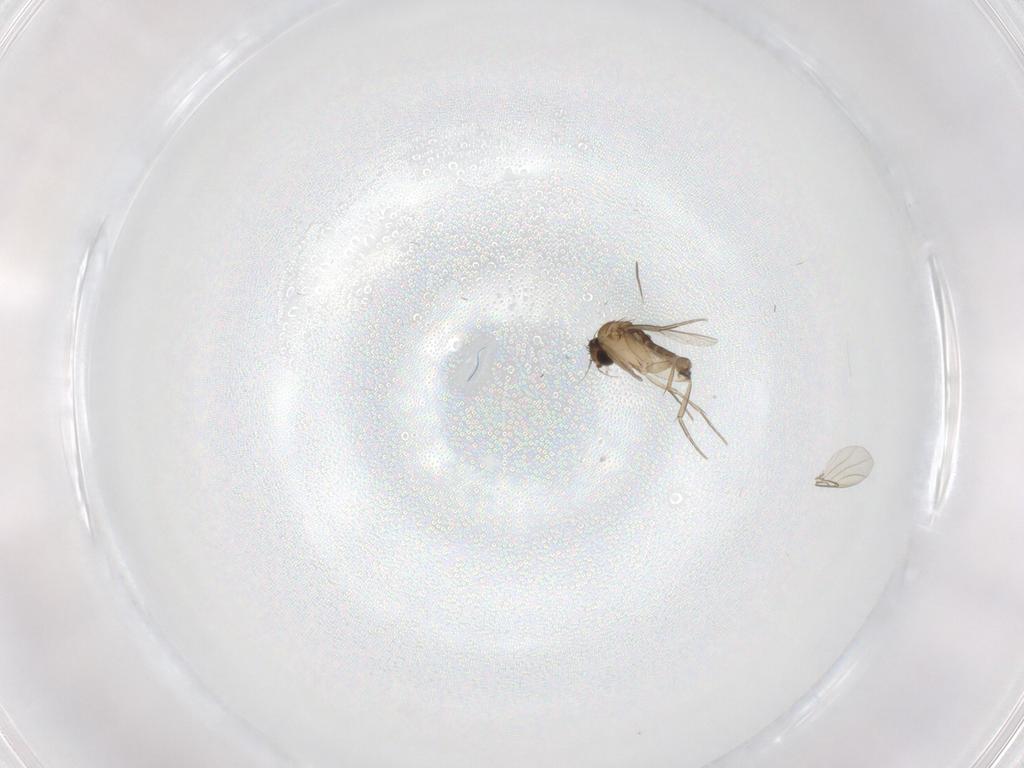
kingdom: Animalia
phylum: Arthropoda
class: Insecta
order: Diptera
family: Phoridae
